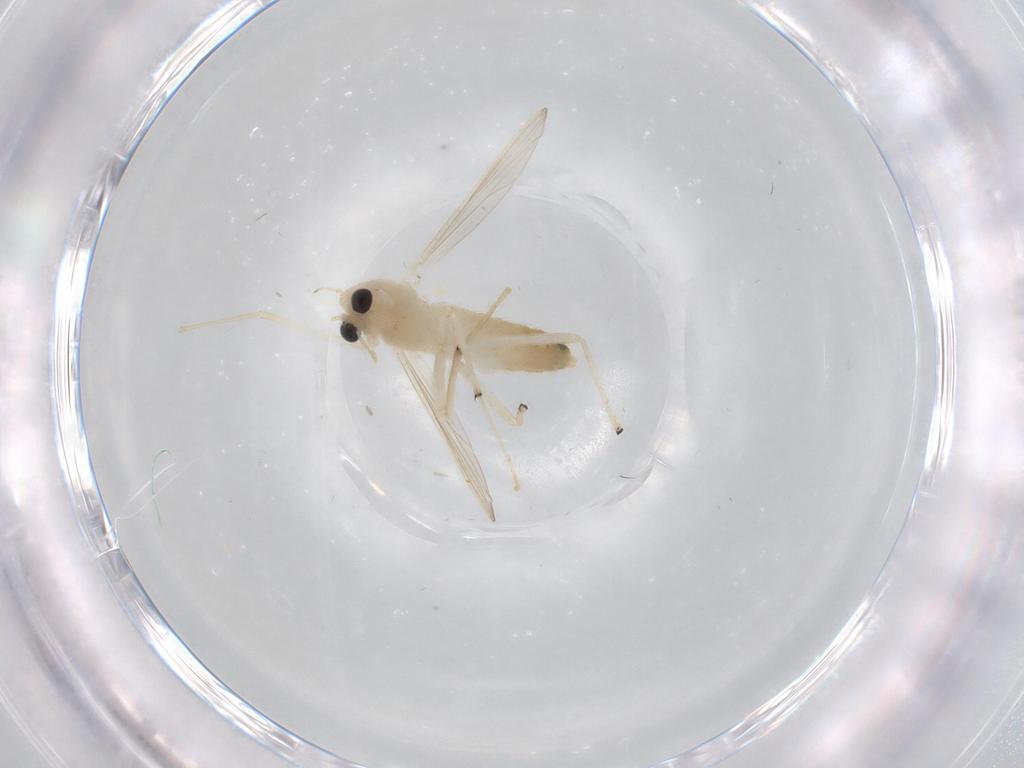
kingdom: Animalia
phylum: Arthropoda
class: Insecta
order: Diptera
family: Chironomidae
